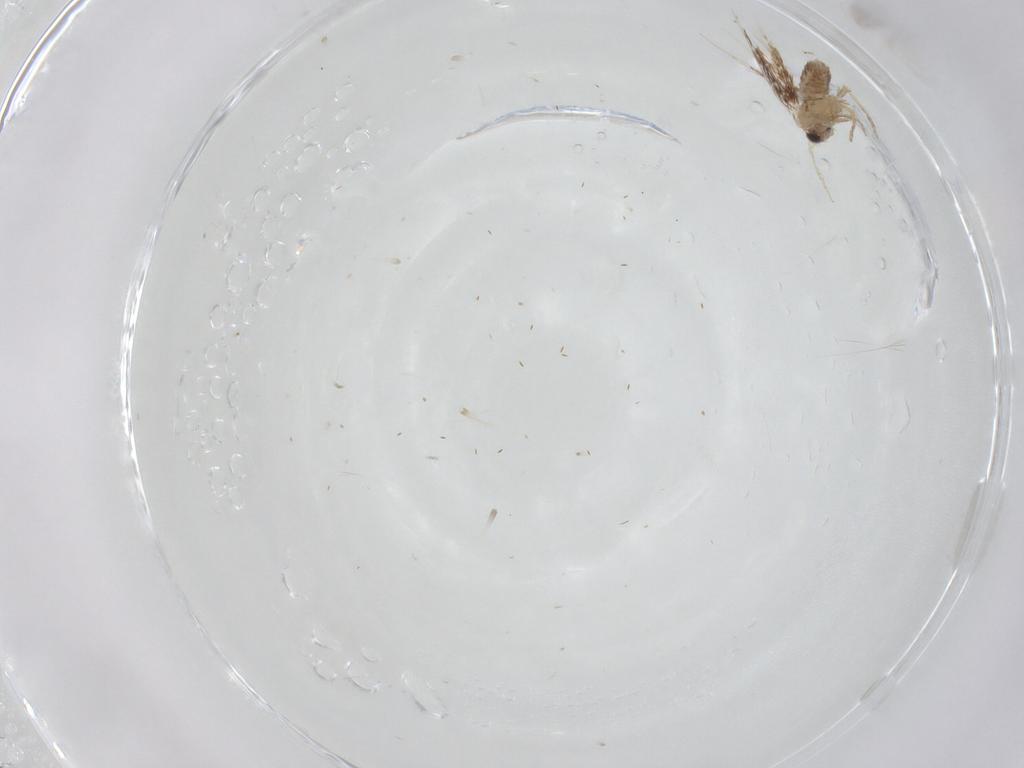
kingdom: Animalia
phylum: Arthropoda
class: Insecta
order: Lepidoptera
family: Nepticulidae
